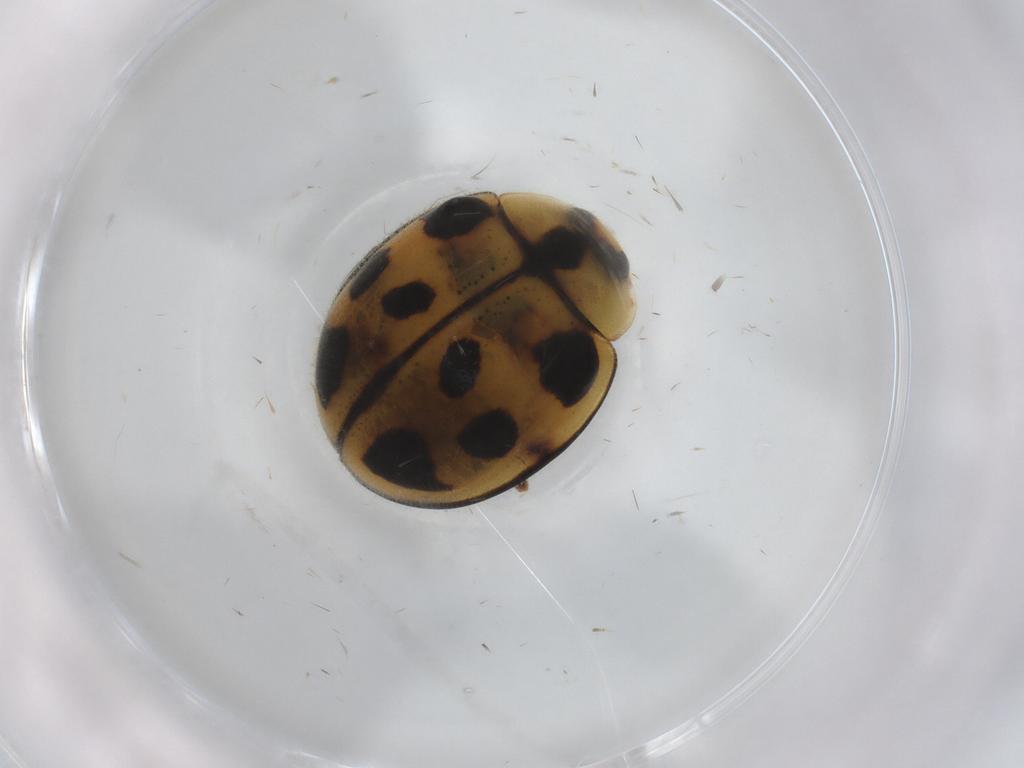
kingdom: Animalia
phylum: Arthropoda
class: Insecta
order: Coleoptera
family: Coccinellidae
